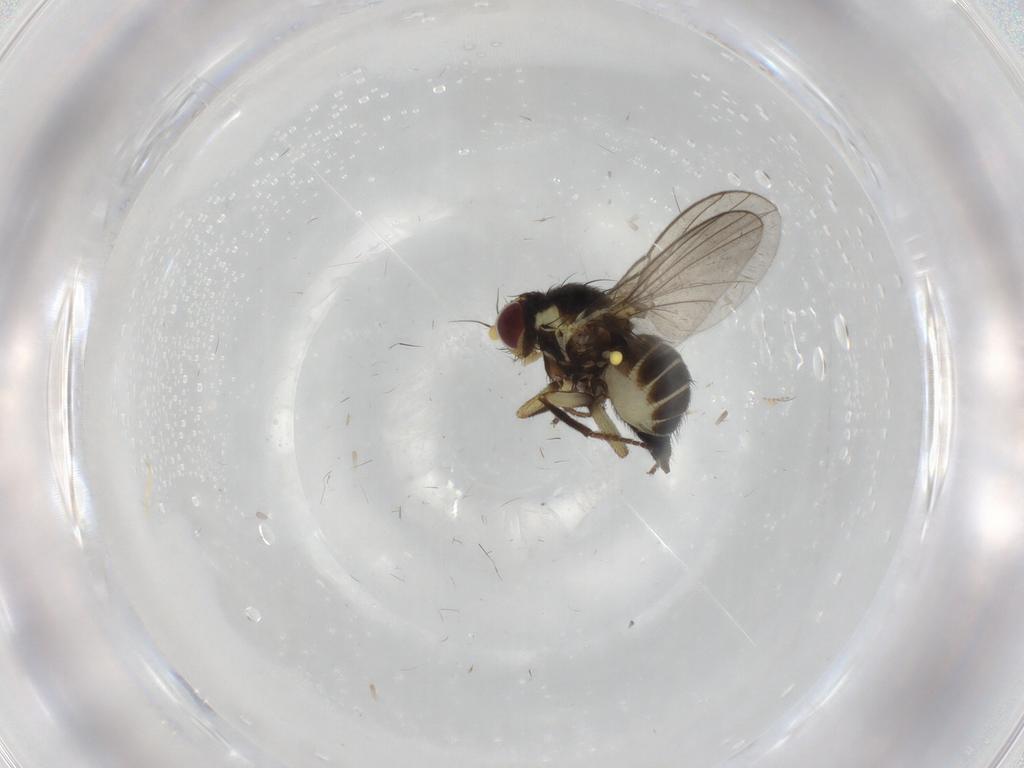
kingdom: Animalia
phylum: Arthropoda
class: Insecta
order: Diptera
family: Agromyzidae
